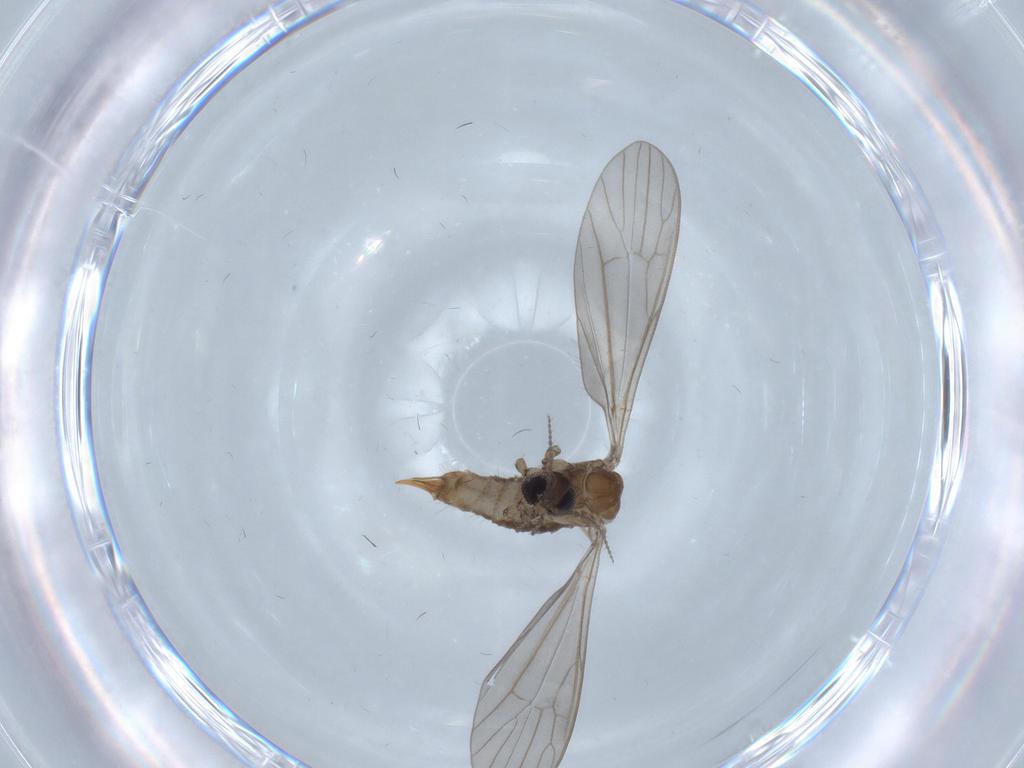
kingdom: Animalia
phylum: Arthropoda
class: Insecta
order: Diptera
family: Limoniidae
